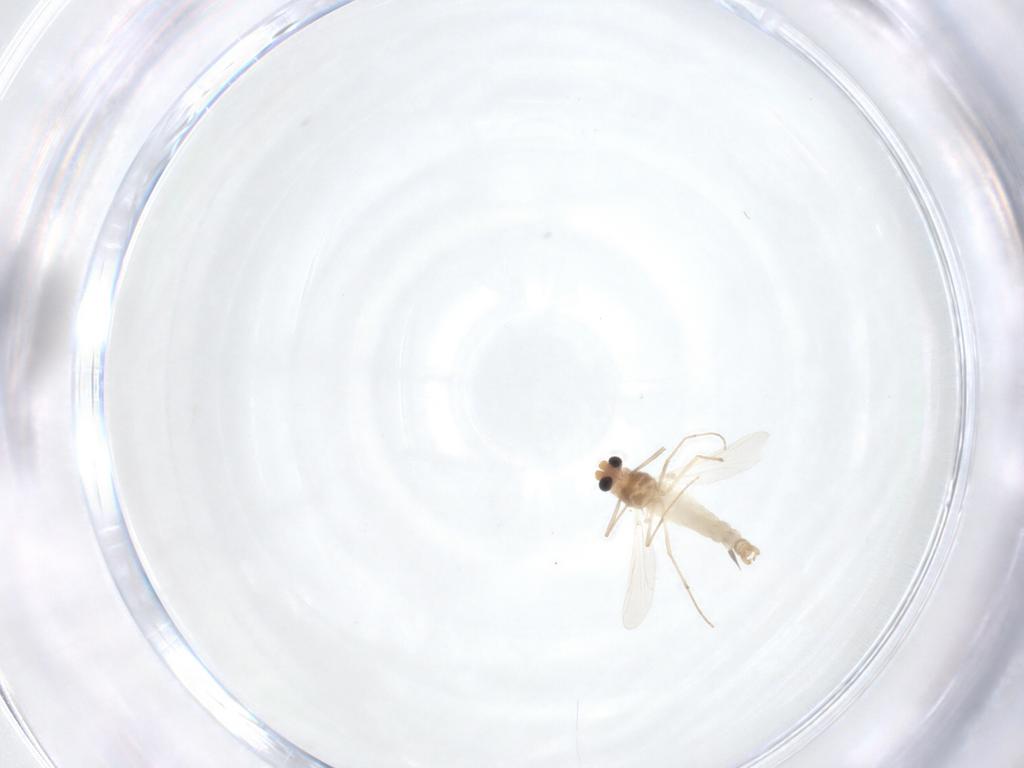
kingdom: Animalia
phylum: Arthropoda
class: Insecta
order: Diptera
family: Chironomidae
